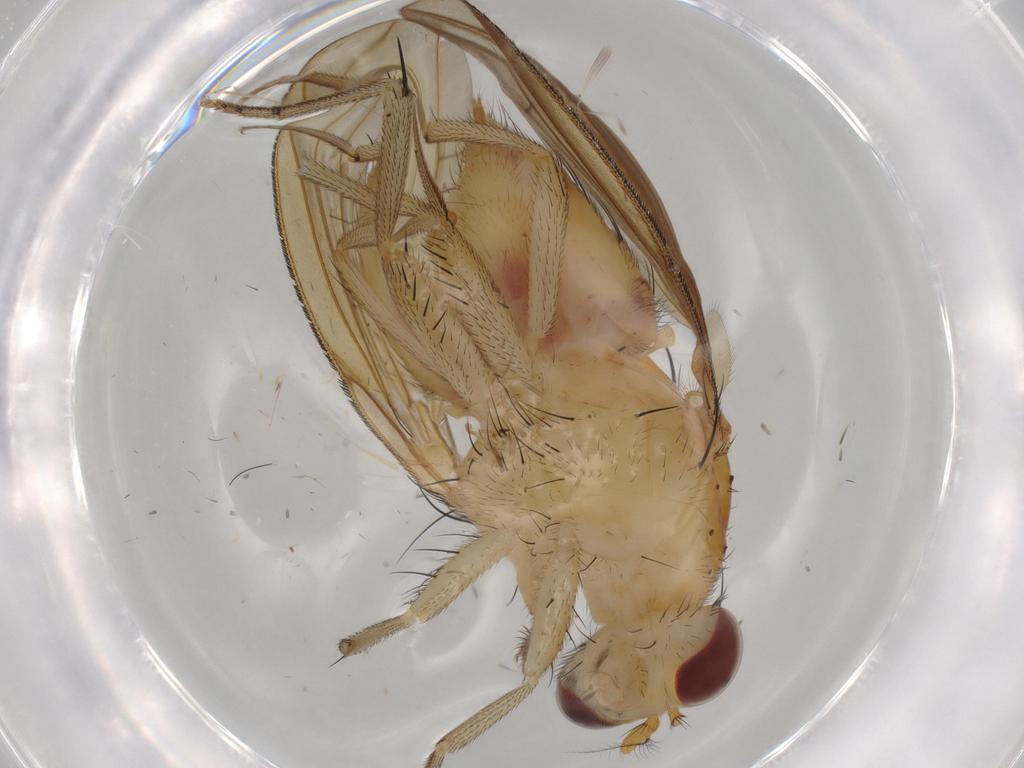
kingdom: Animalia
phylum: Arthropoda
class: Insecta
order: Diptera
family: Lauxaniidae
